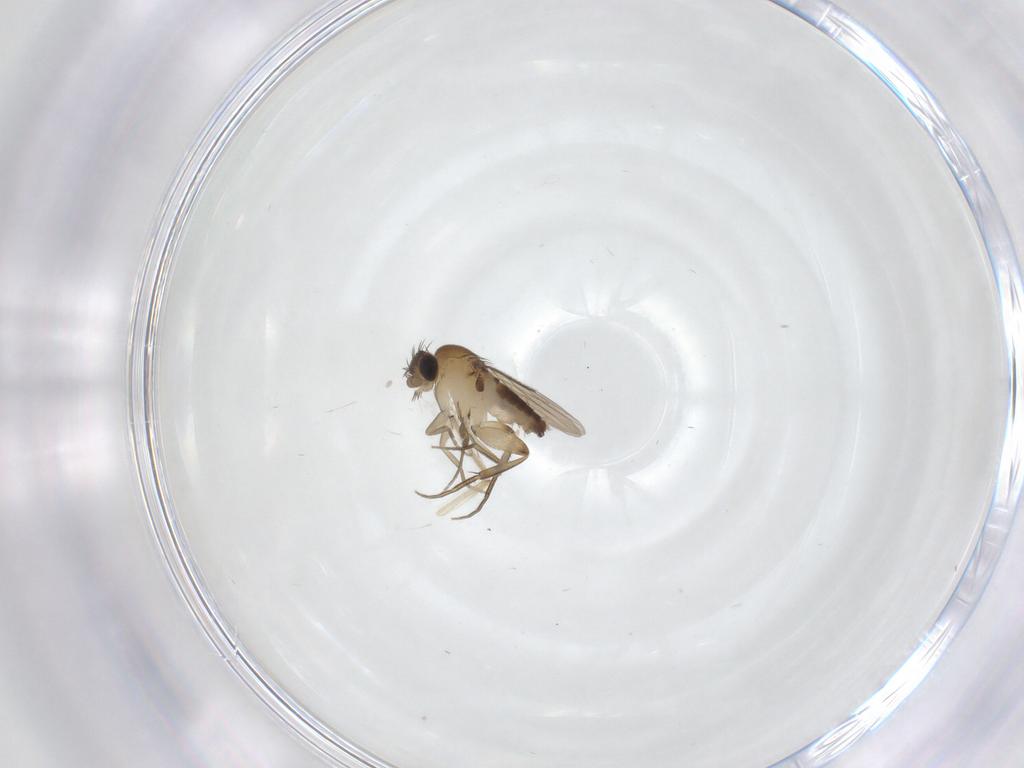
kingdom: Animalia
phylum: Arthropoda
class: Insecta
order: Diptera
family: Phoridae
